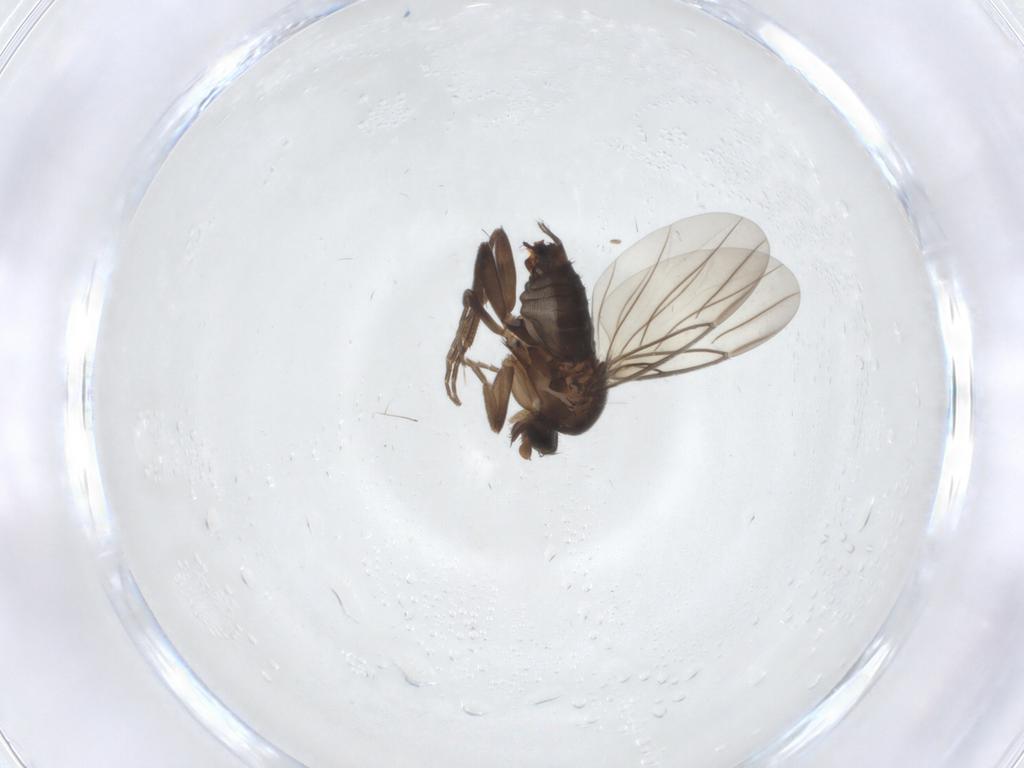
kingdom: Animalia
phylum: Arthropoda
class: Insecta
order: Diptera
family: Phoridae
